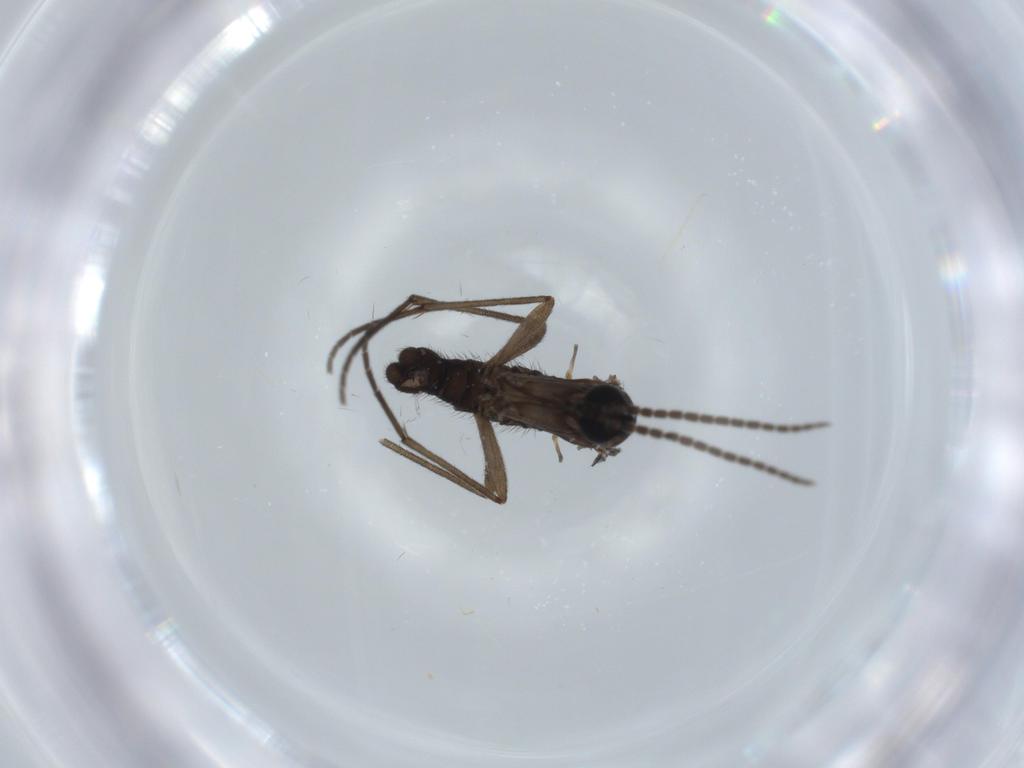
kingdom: Animalia
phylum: Arthropoda
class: Insecta
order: Diptera
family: Sciaridae
